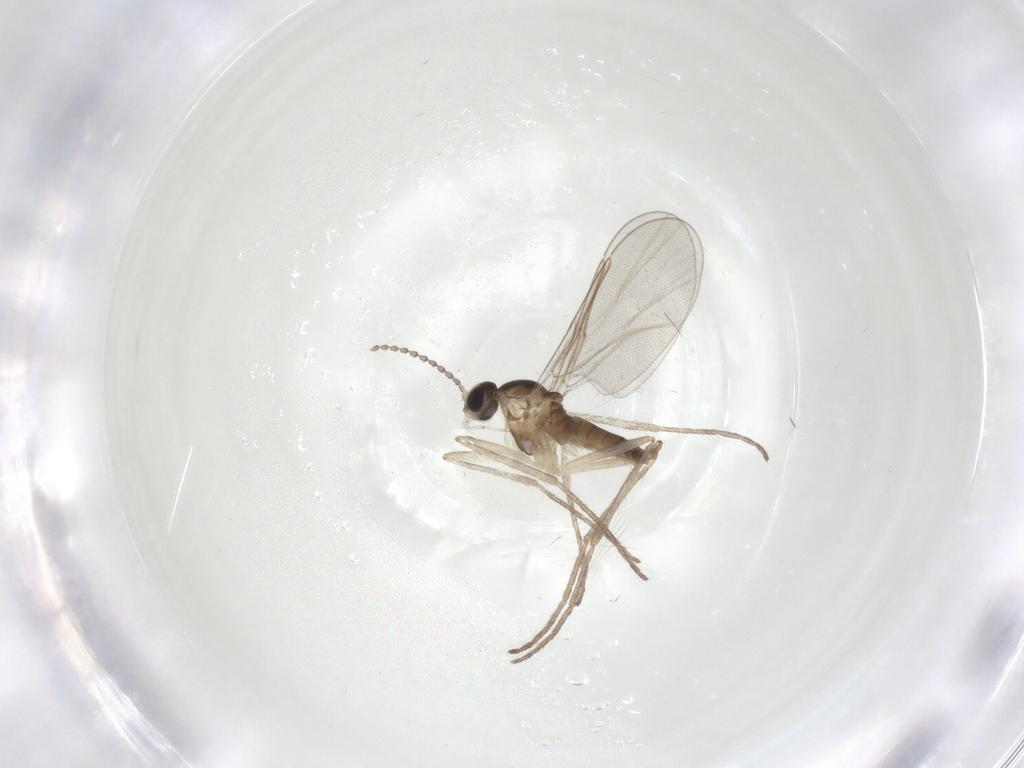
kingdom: Animalia
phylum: Arthropoda
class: Insecta
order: Diptera
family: Cecidomyiidae
